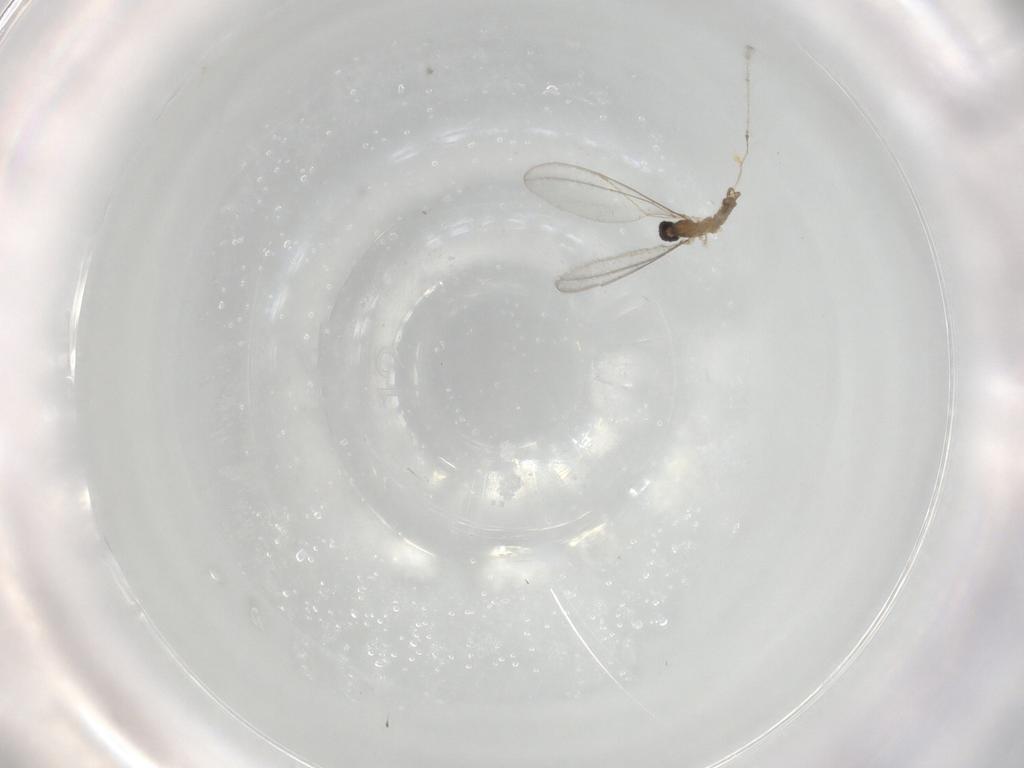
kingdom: Animalia
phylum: Arthropoda
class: Insecta
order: Diptera
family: Cecidomyiidae
